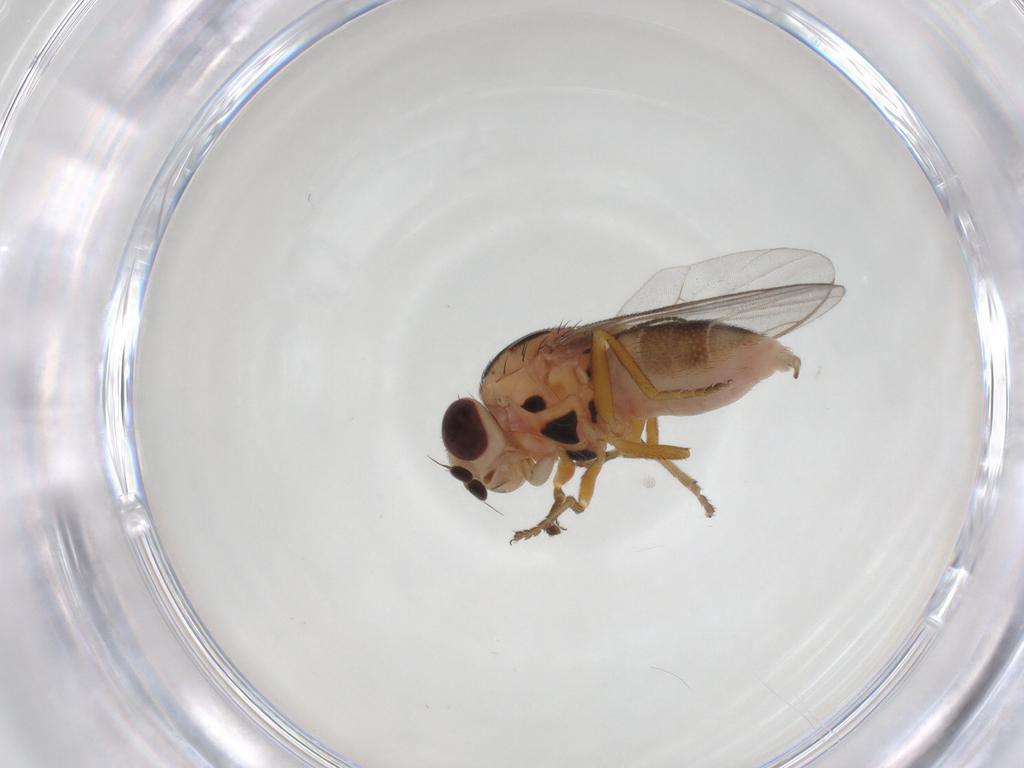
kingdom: Animalia
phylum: Arthropoda
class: Insecta
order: Diptera
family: Chloropidae
